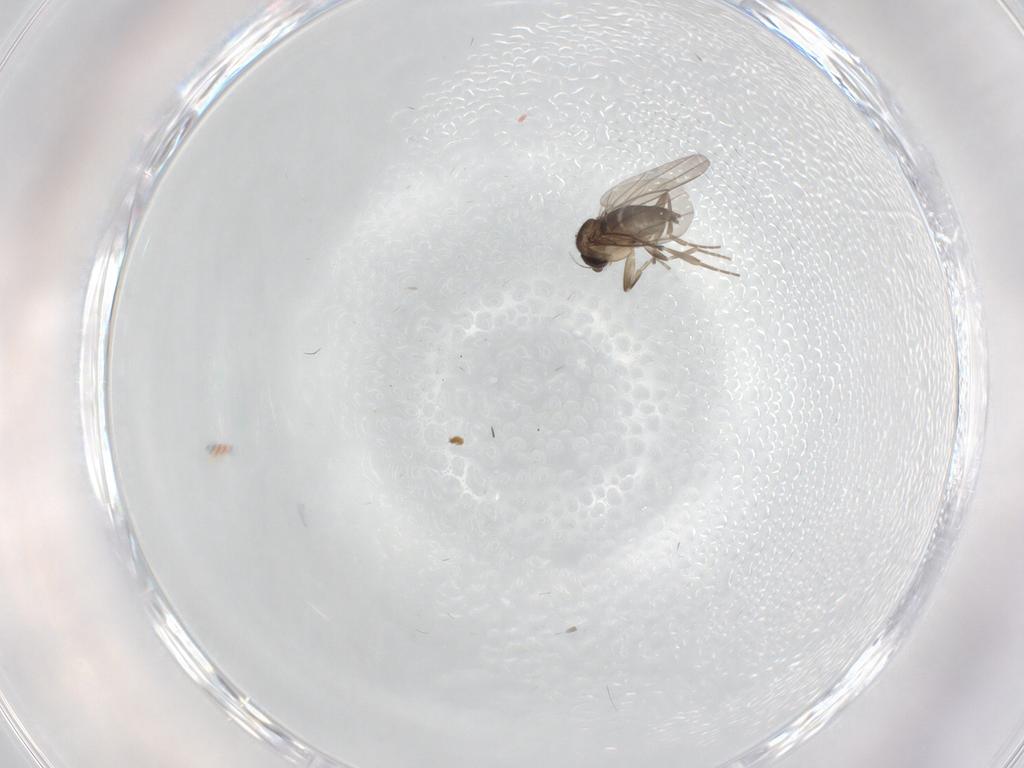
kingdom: Animalia
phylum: Arthropoda
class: Insecta
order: Diptera
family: Phoridae
